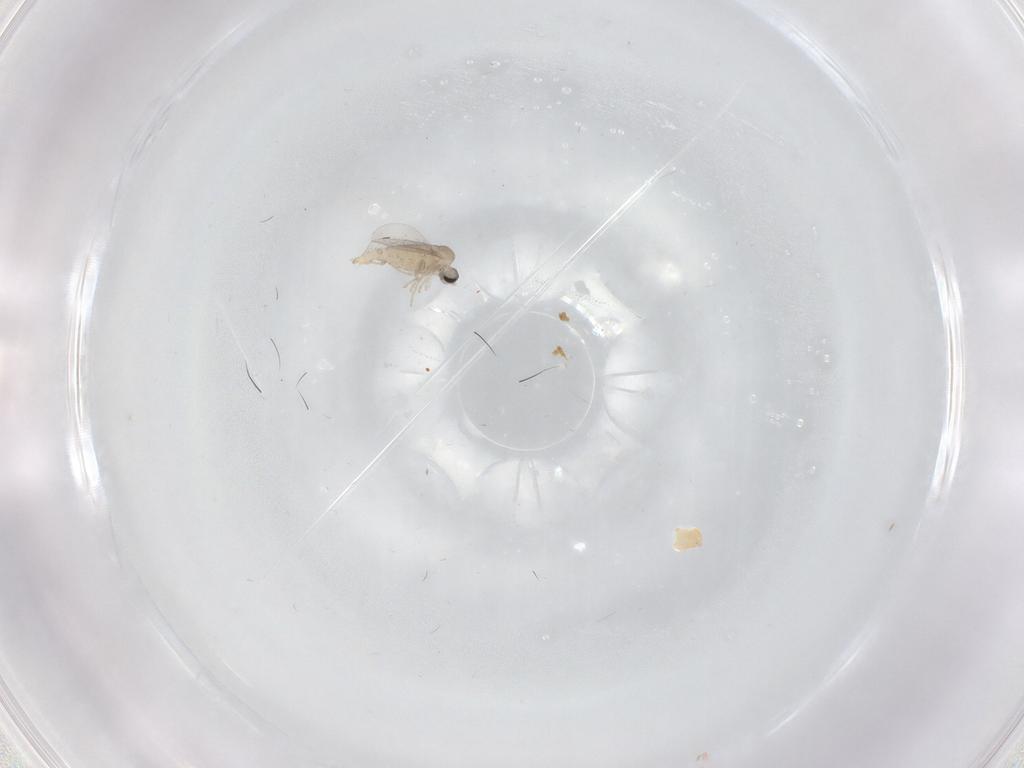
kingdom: Animalia
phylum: Arthropoda
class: Insecta
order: Diptera
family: Cecidomyiidae
